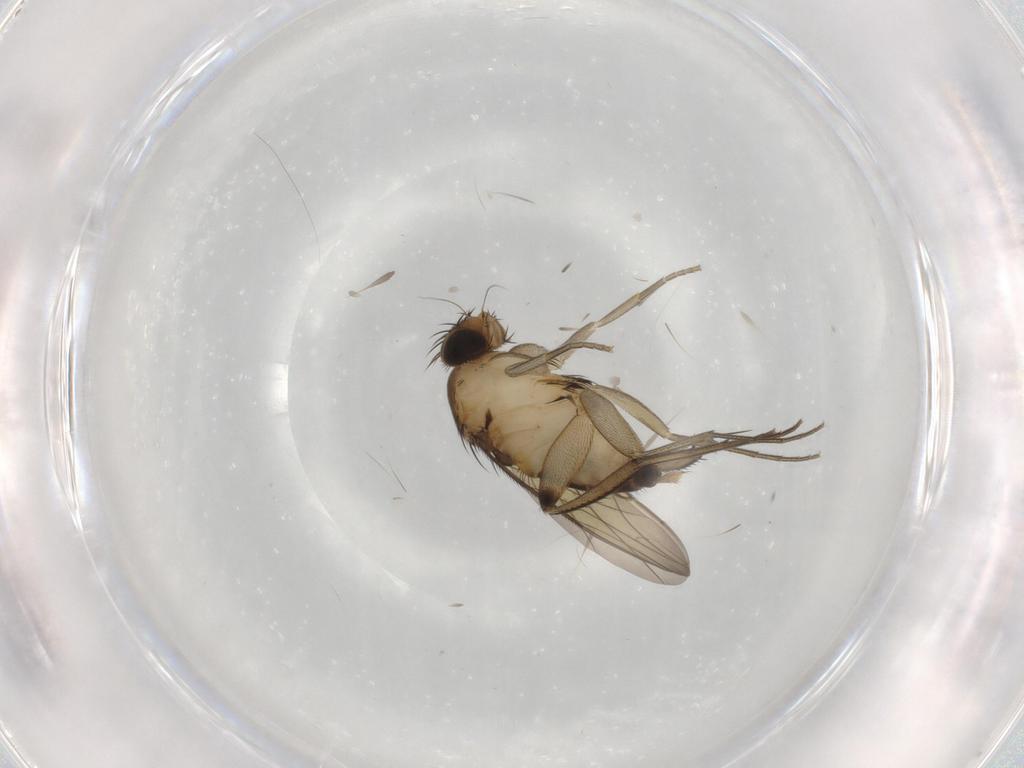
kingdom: Animalia
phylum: Arthropoda
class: Insecta
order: Diptera
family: Phoridae
